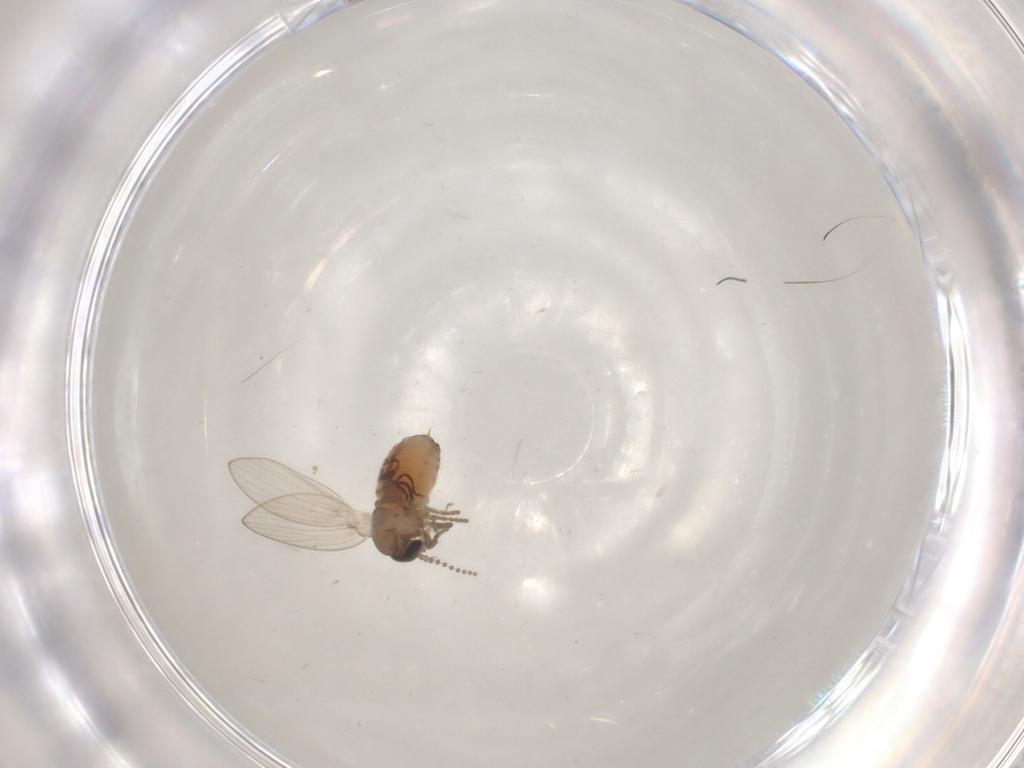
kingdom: Animalia
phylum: Arthropoda
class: Insecta
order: Diptera
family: Psychodidae
